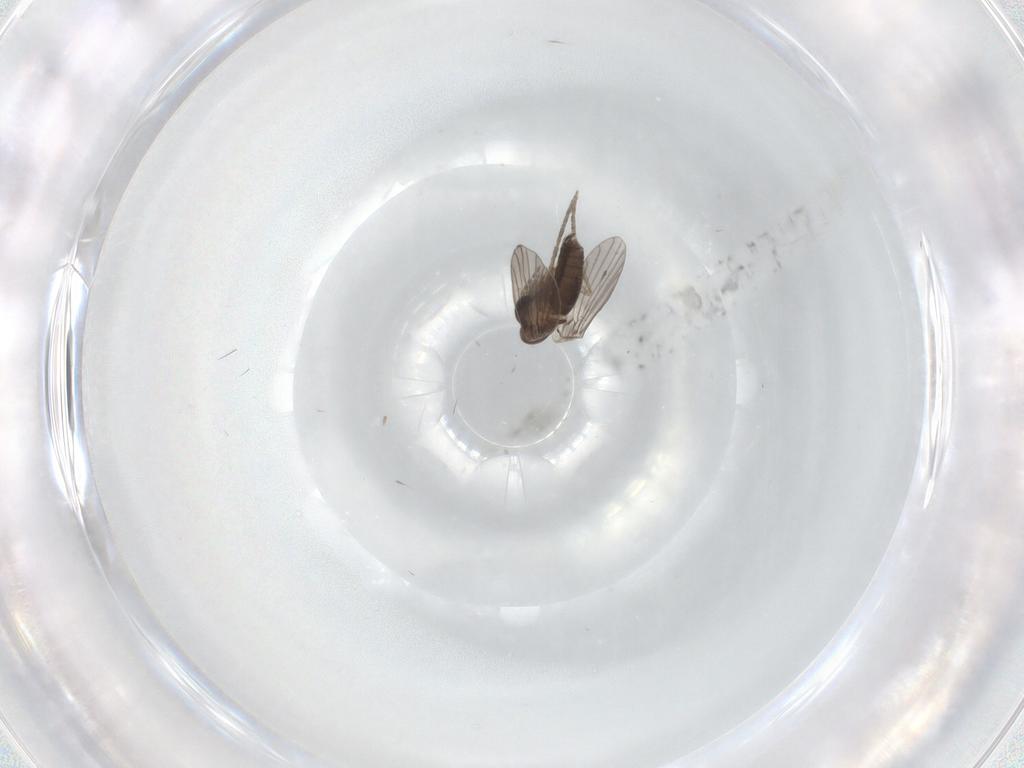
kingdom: Animalia
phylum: Arthropoda
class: Insecta
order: Diptera
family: Cecidomyiidae
